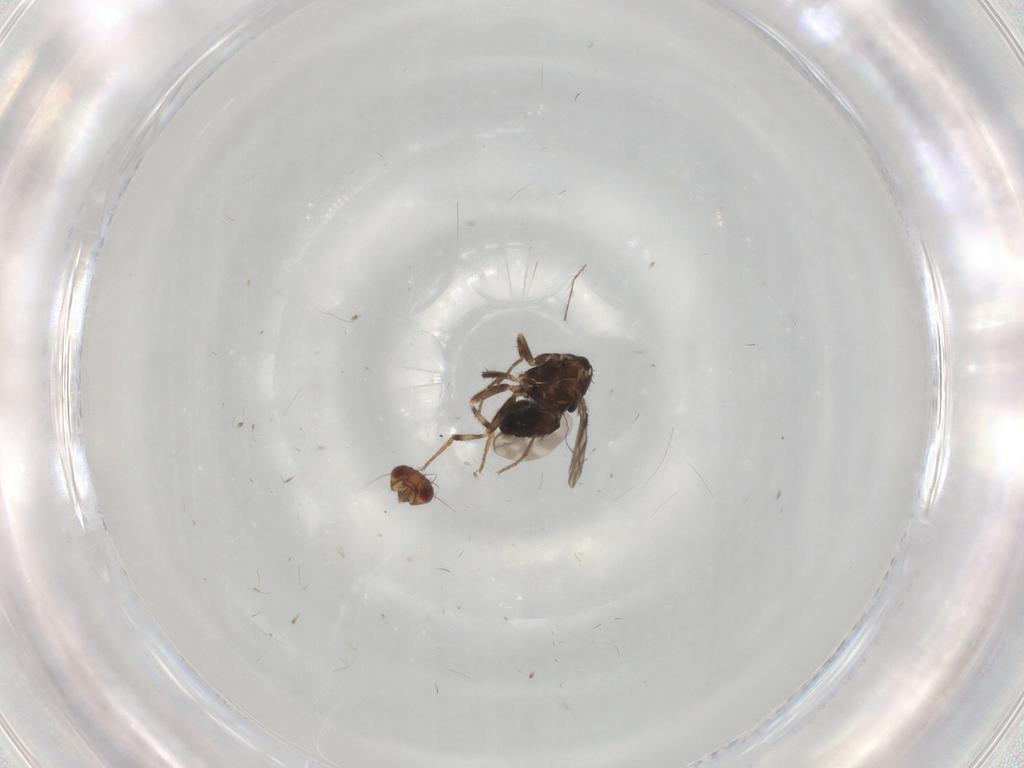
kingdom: Animalia
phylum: Arthropoda
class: Insecta
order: Diptera
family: Sphaeroceridae
